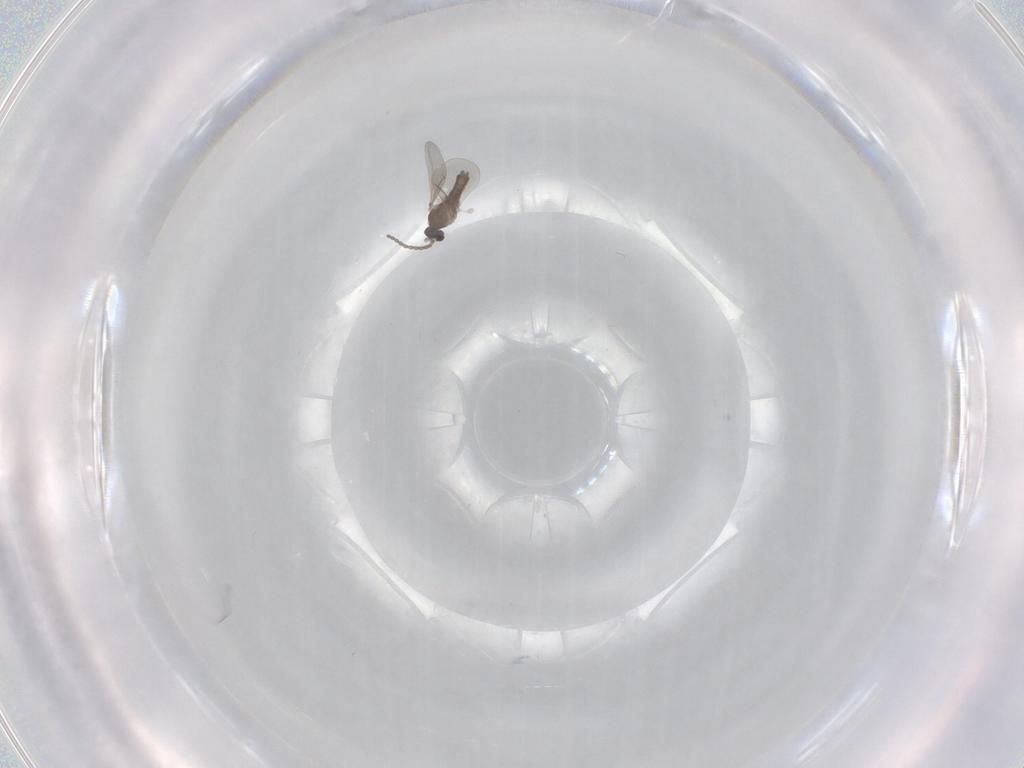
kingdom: Animalia
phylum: Arthropoda
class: Insecta
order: Diptera
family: Cecidomyiidae
